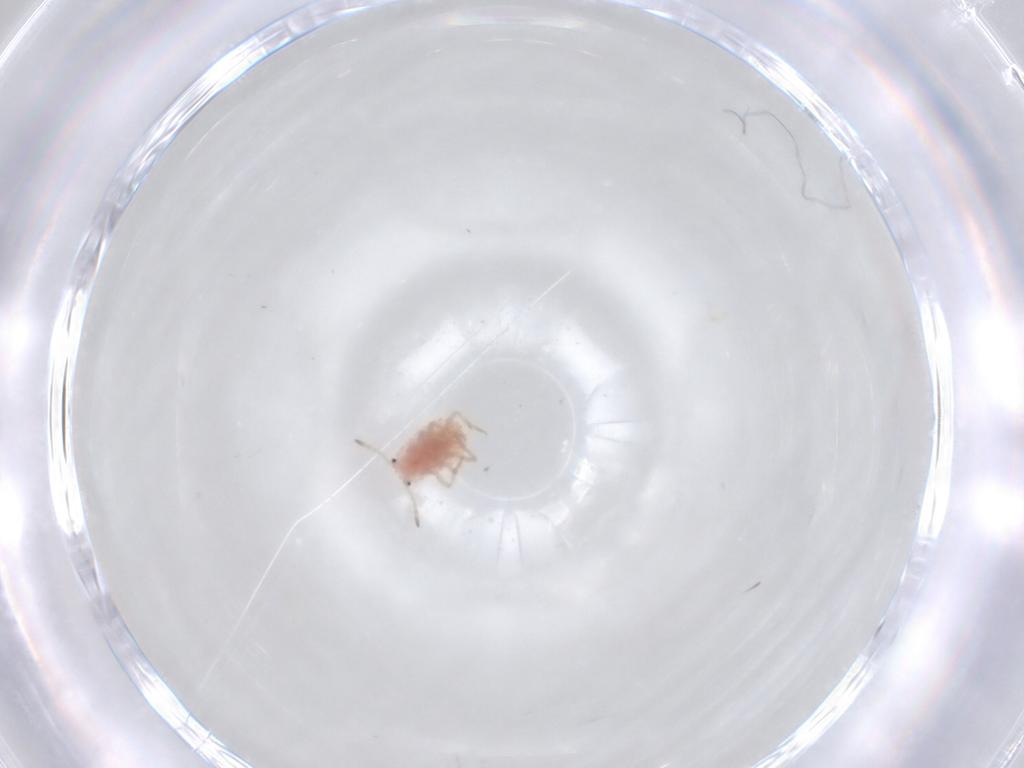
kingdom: Animalia
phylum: Arthropoda
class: Insecta
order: Hemiptera
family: Coccoidea_incertae_sedis
